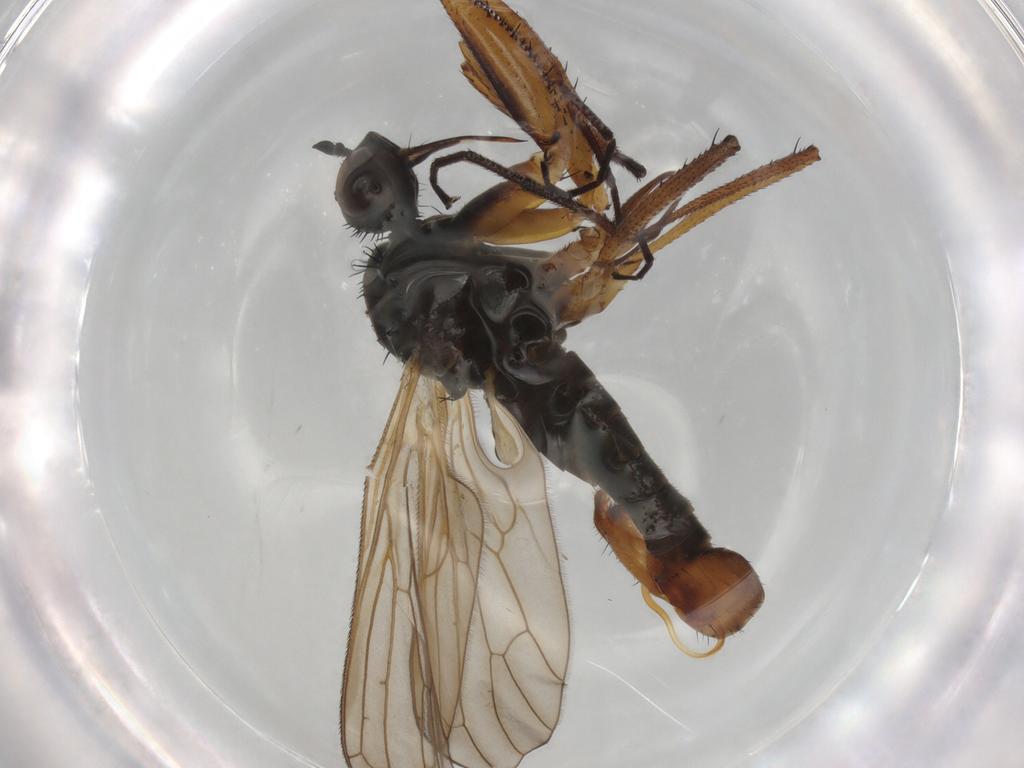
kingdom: Animalia
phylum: Arthropoda
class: Insecta
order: Diptera
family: Empididae
